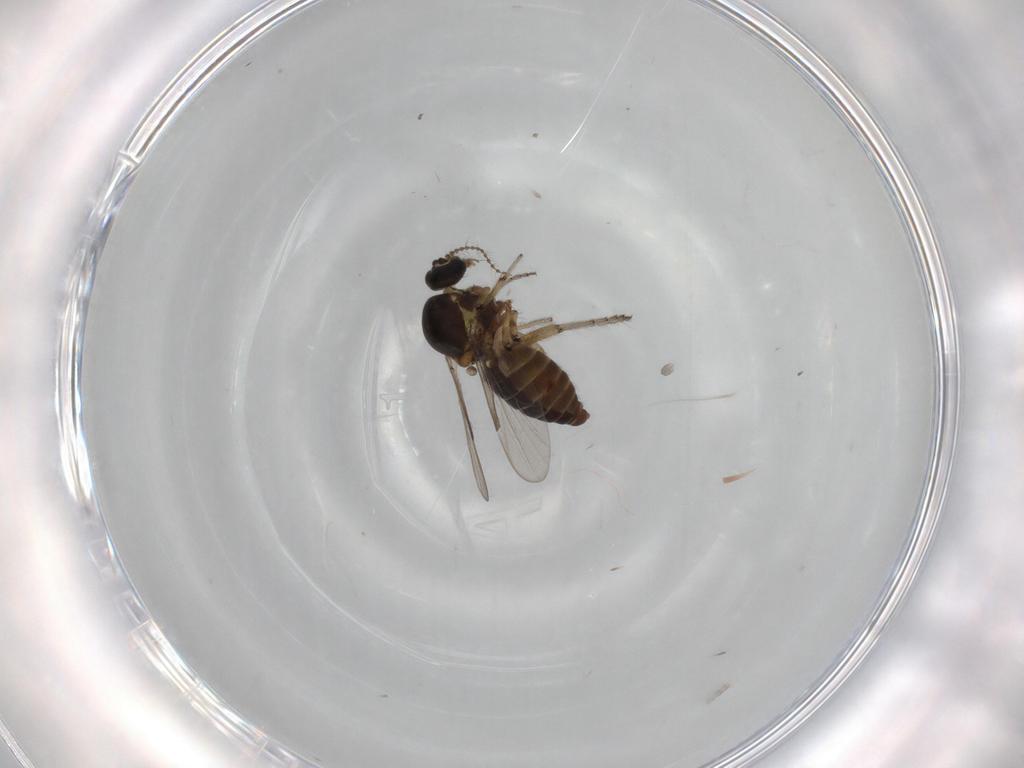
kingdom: Animalia
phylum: Arthropoda
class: Insecta
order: Diptera
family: Ceratopogonidae
